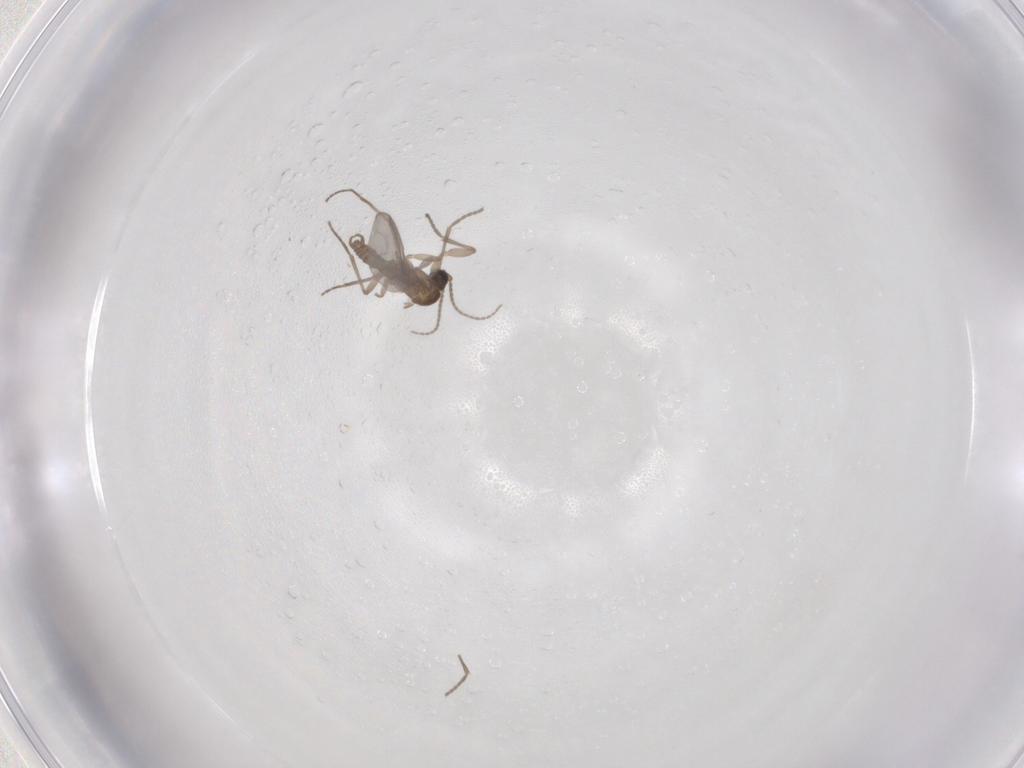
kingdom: Animalia
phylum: Arthropoda
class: Insecta
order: Diptera
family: Sciaridae
